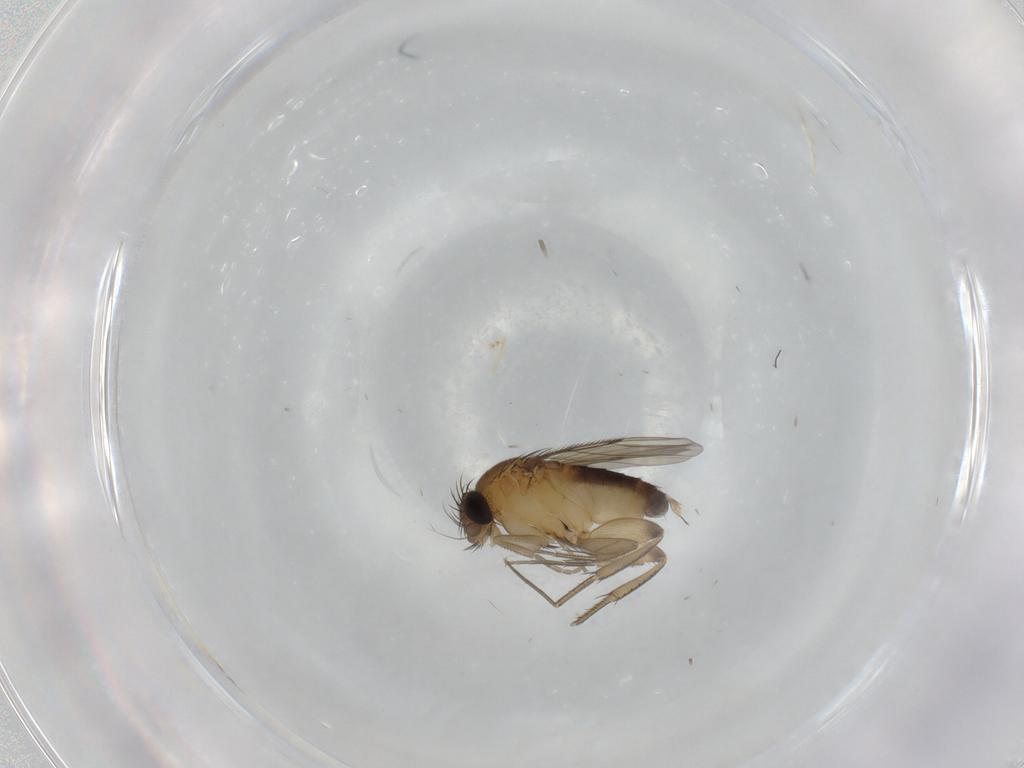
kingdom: Animalia
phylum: Arthropoda
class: Insecta
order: Diptera
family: Phoridae
